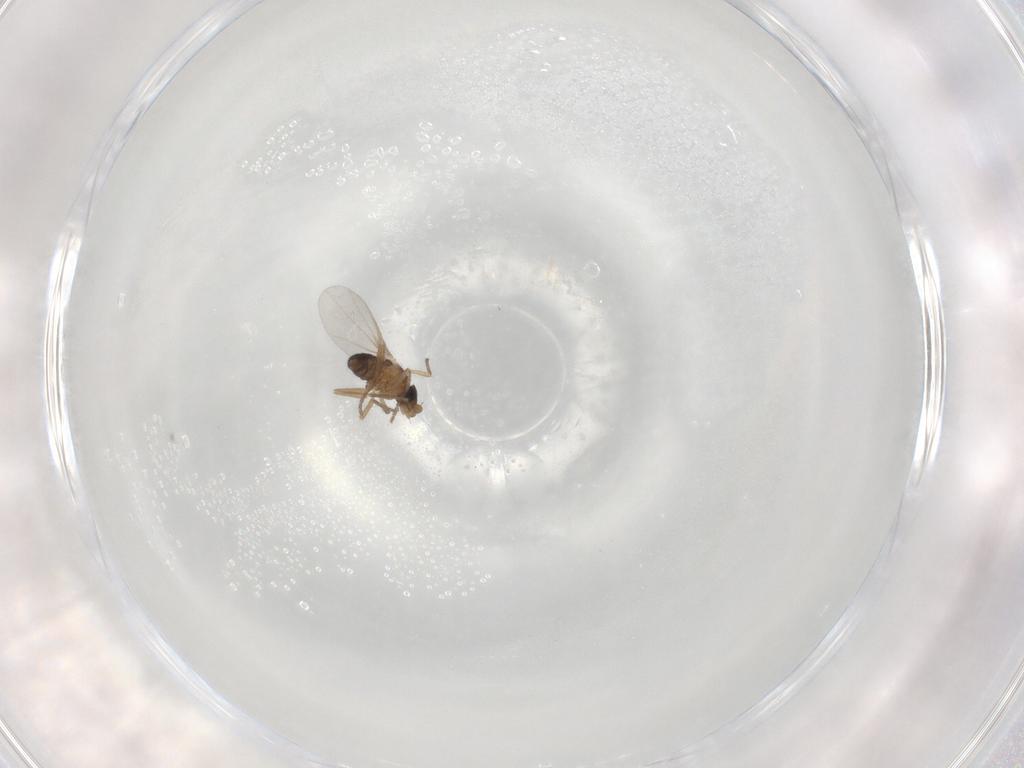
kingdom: Animalia
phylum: Arthropoda
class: Insecta
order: Diptera
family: Phoridae
